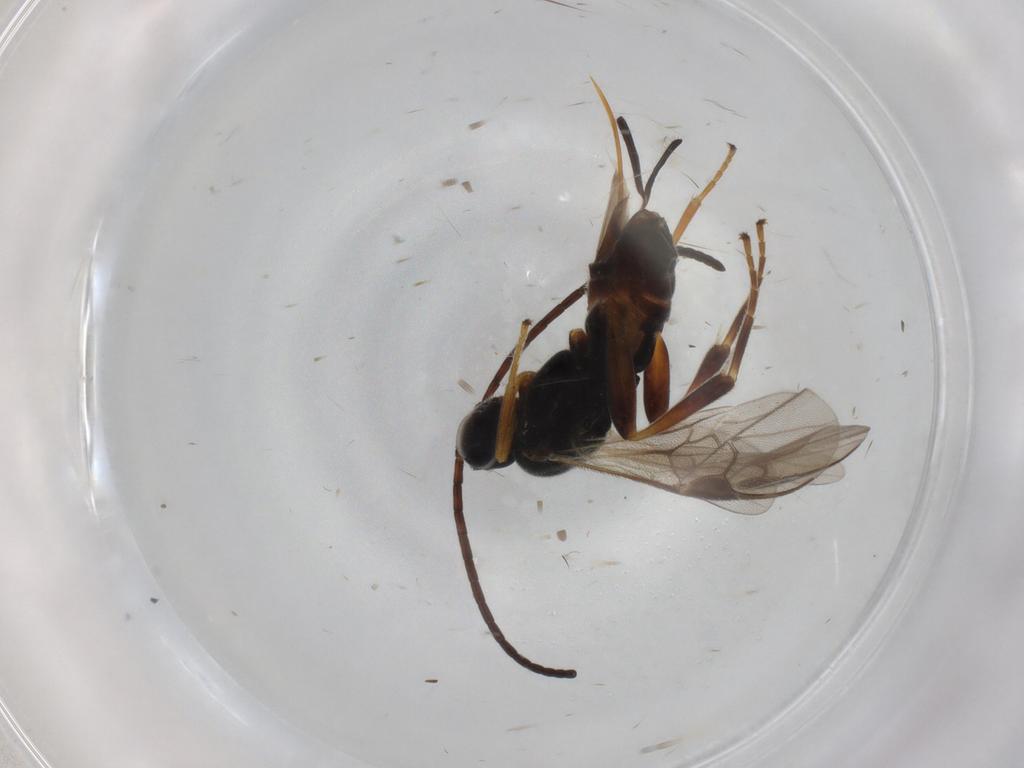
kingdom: Animalia
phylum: Arthropoda
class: Insecta
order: Hymenoptera
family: Braconidae
